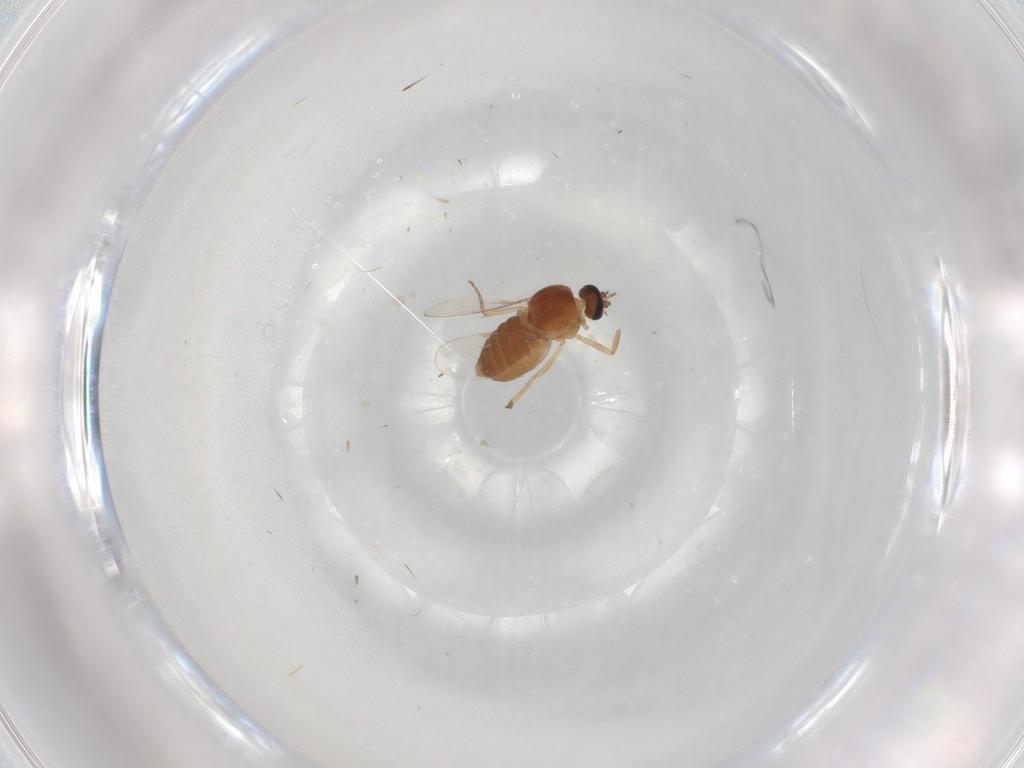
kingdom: Animalia
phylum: Arthropoda
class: Insecta
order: Diptera
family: Ceratopogonidae
